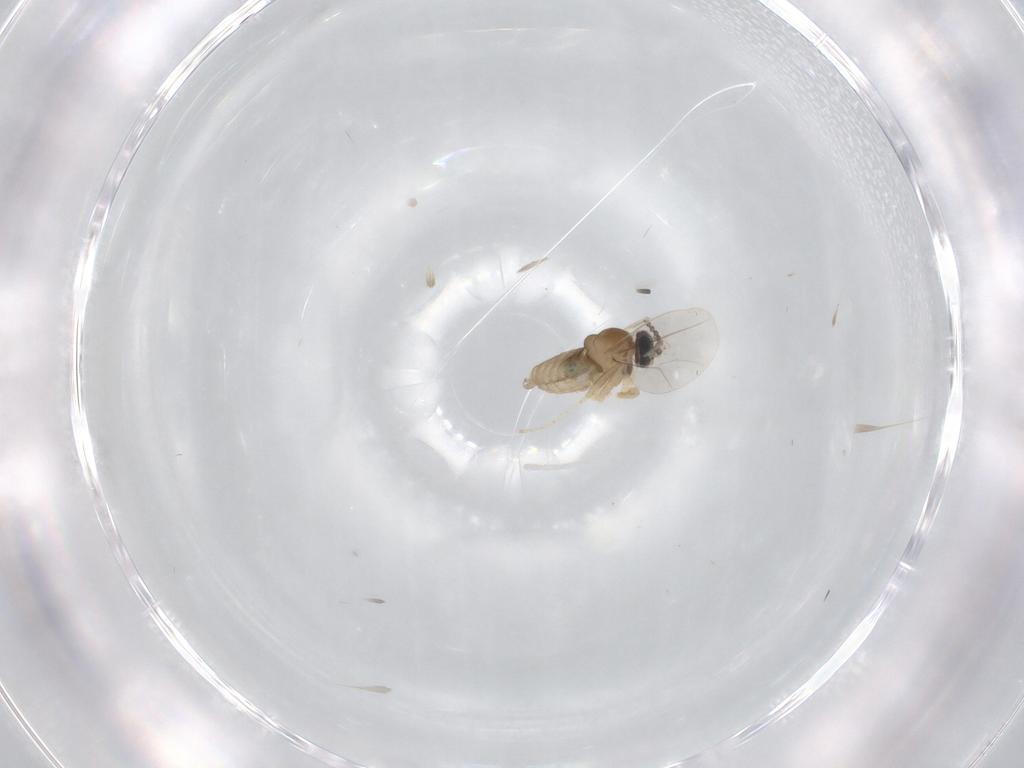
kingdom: Animalia
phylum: Arthropoda
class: Insecta
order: Diptera
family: Cecidomyiidae
